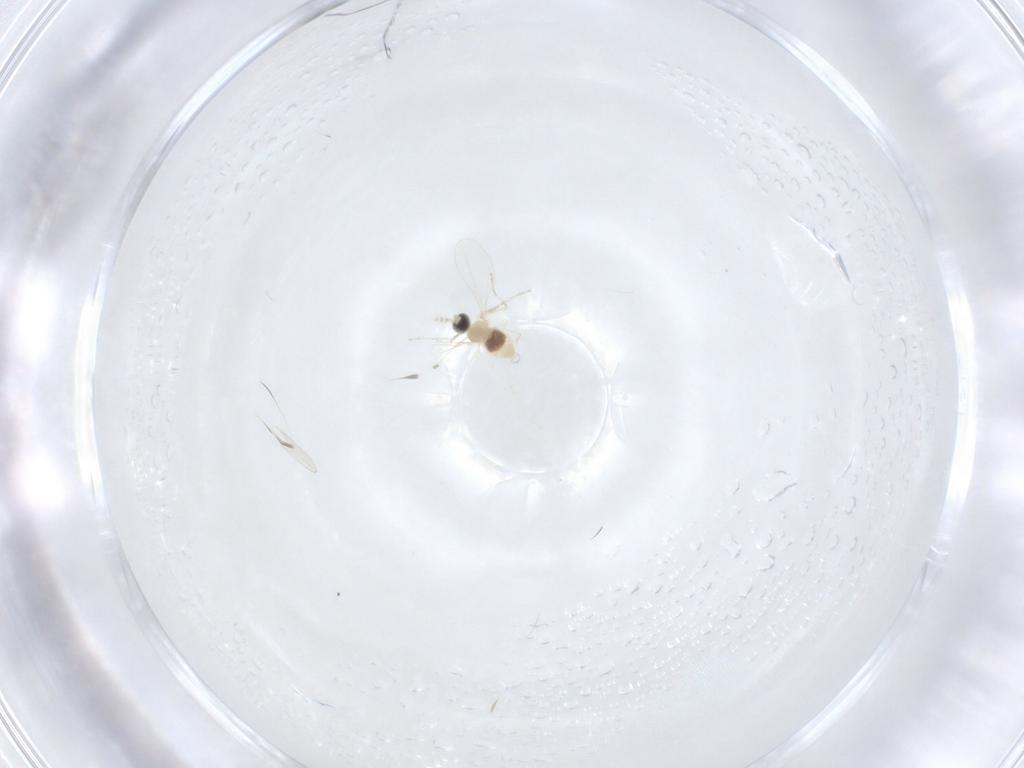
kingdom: Animalia
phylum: Arthropoda
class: Insecta
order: Diptera
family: Cecidomyiidae
